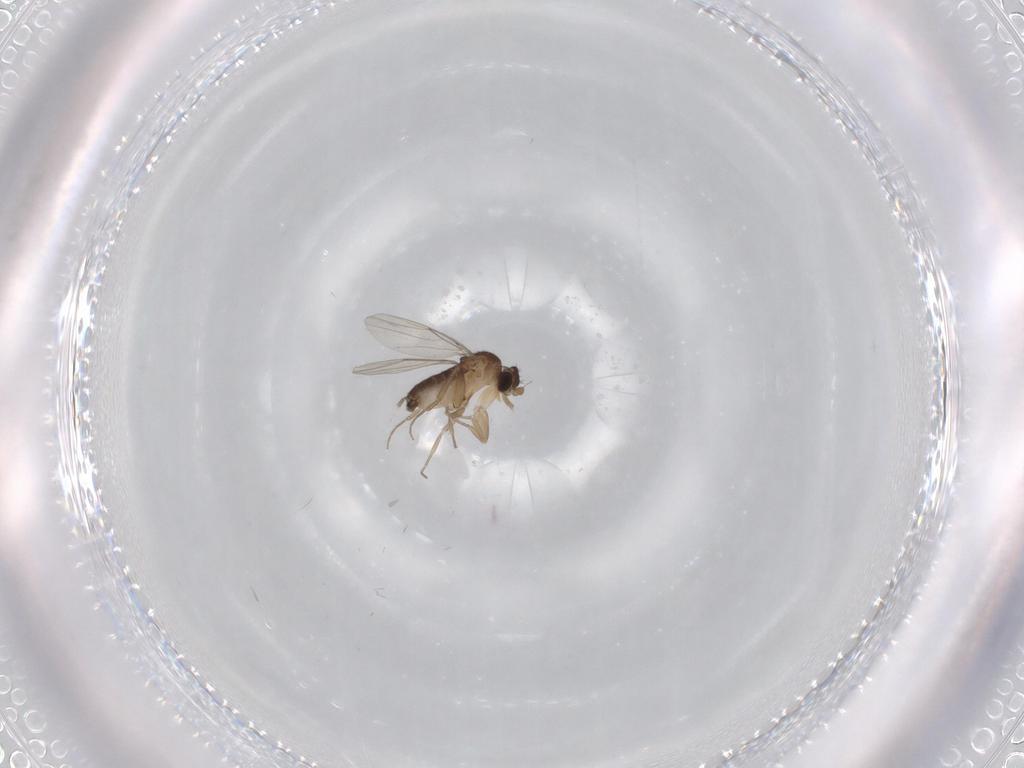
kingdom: Animalia
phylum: Arthropoda
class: Insecta
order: Diptera
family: Phoridae
